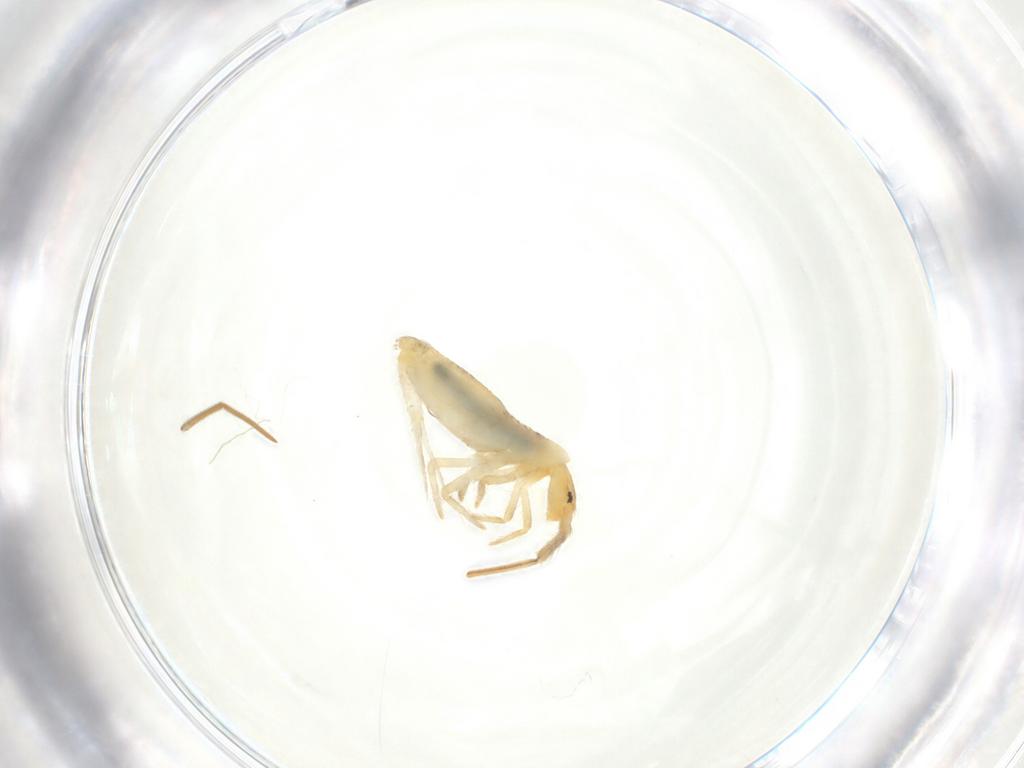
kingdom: Animalia
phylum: Arthropoda
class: Collembola
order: Entomobryomorpha
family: Entomobryidae
